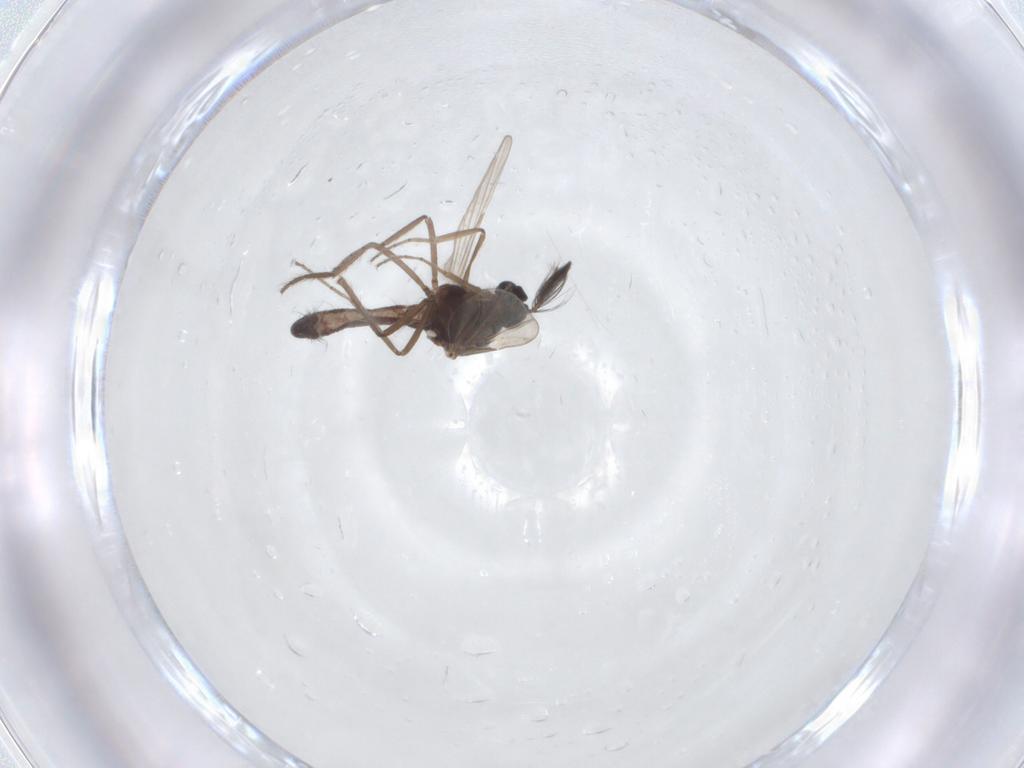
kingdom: Animalia
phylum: Arthropoda
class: Insecta
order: Diptera
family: Ceratopogonidae
